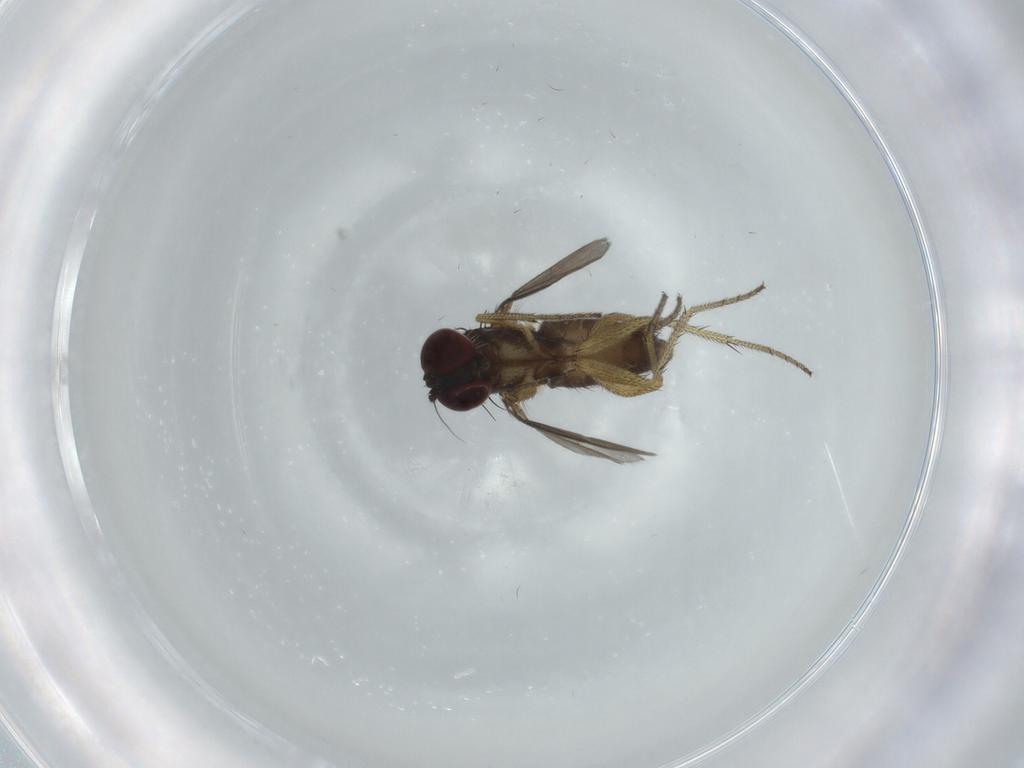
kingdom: Animalia
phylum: Arthropoda
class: Insecta
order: Diptera
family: Dolichopodidae
